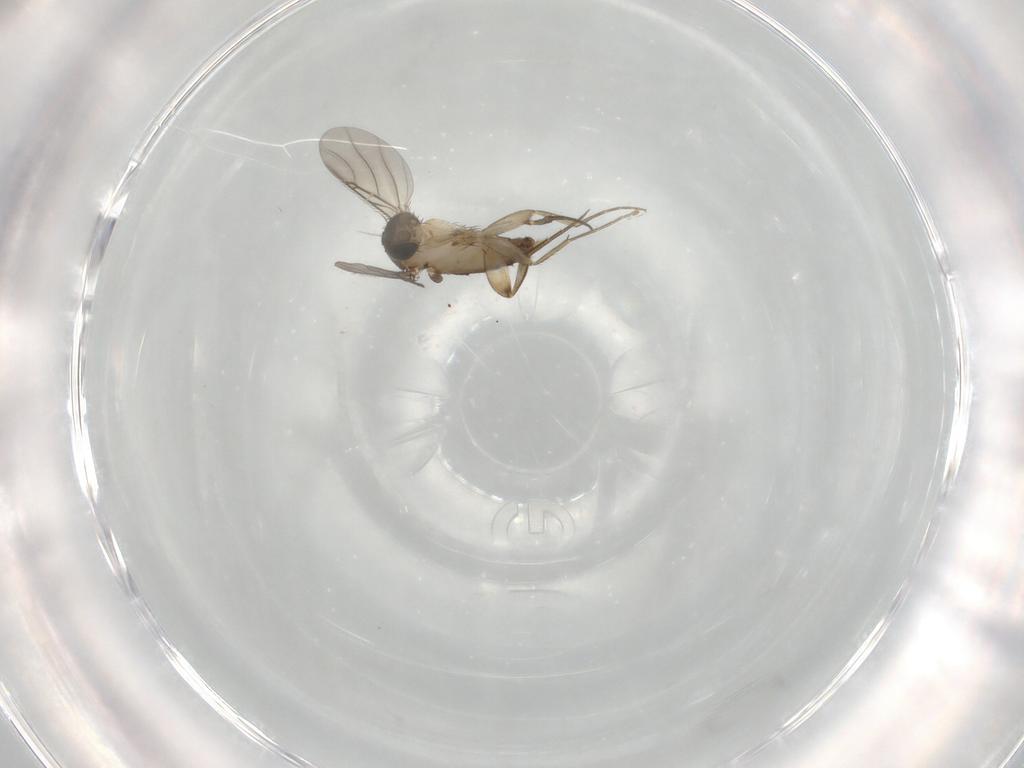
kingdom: Animalia
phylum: Arthropoda
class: Insecta
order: Diptera
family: Phoridae
